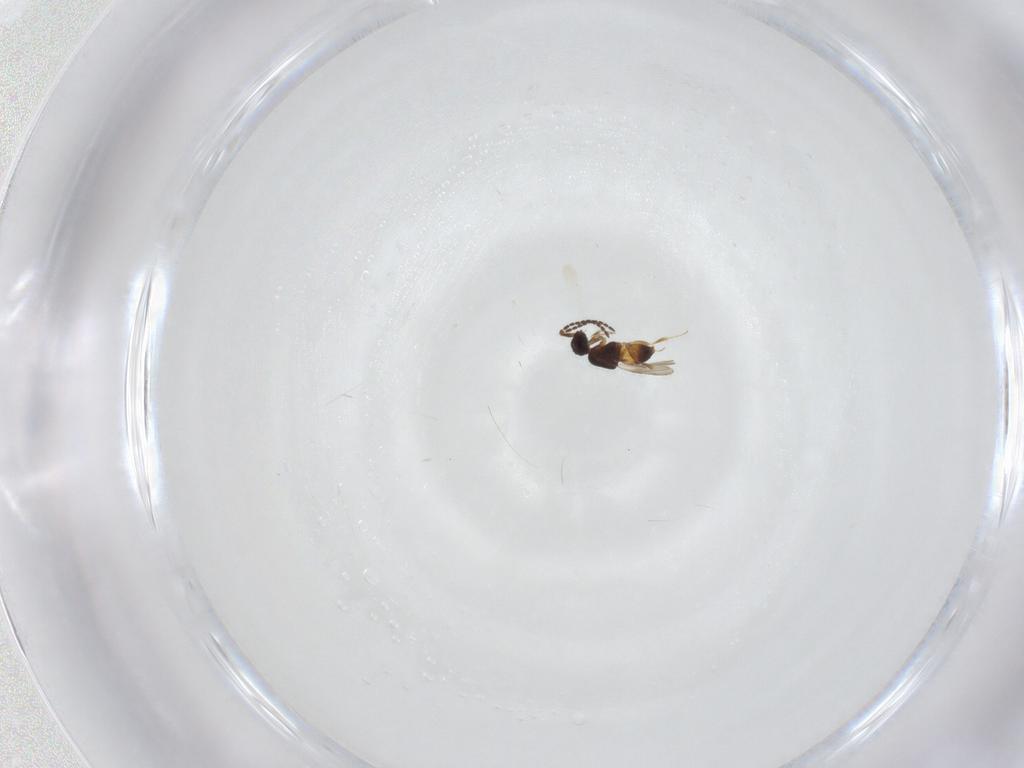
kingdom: Animalia
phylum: Arthropoda
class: Insecta
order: Hymenoptera
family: Ceraphronidae
